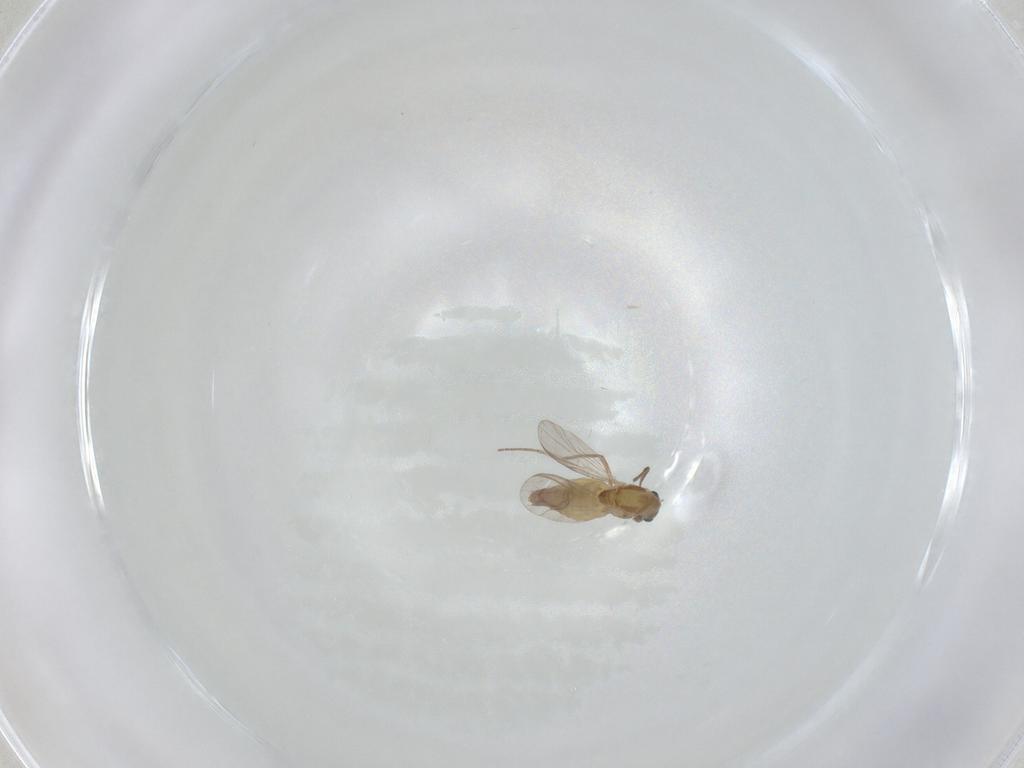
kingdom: Animalia
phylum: Arthropoda
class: Insecta
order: Diptera
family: Chironomidae
